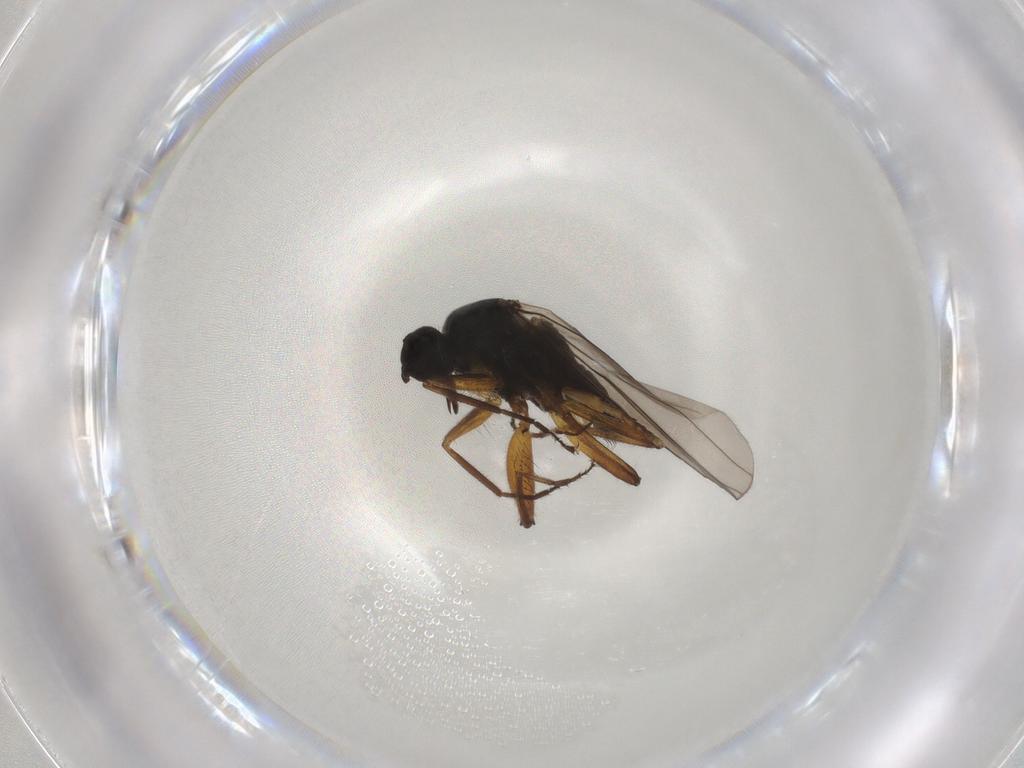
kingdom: Animalia
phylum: Arthropoda
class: Insecta
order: Diptera
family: Hybotidae
